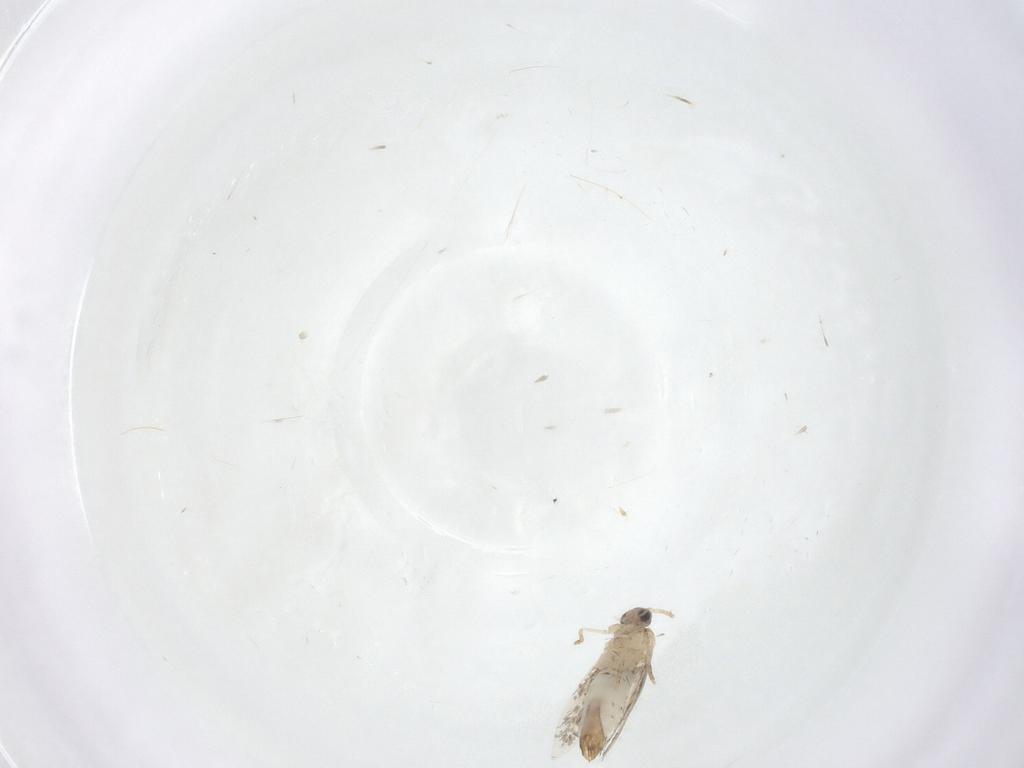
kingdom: Animalia
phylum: Arthropoda
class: Insecta
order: Lepidoptera
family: Nepticulidae
